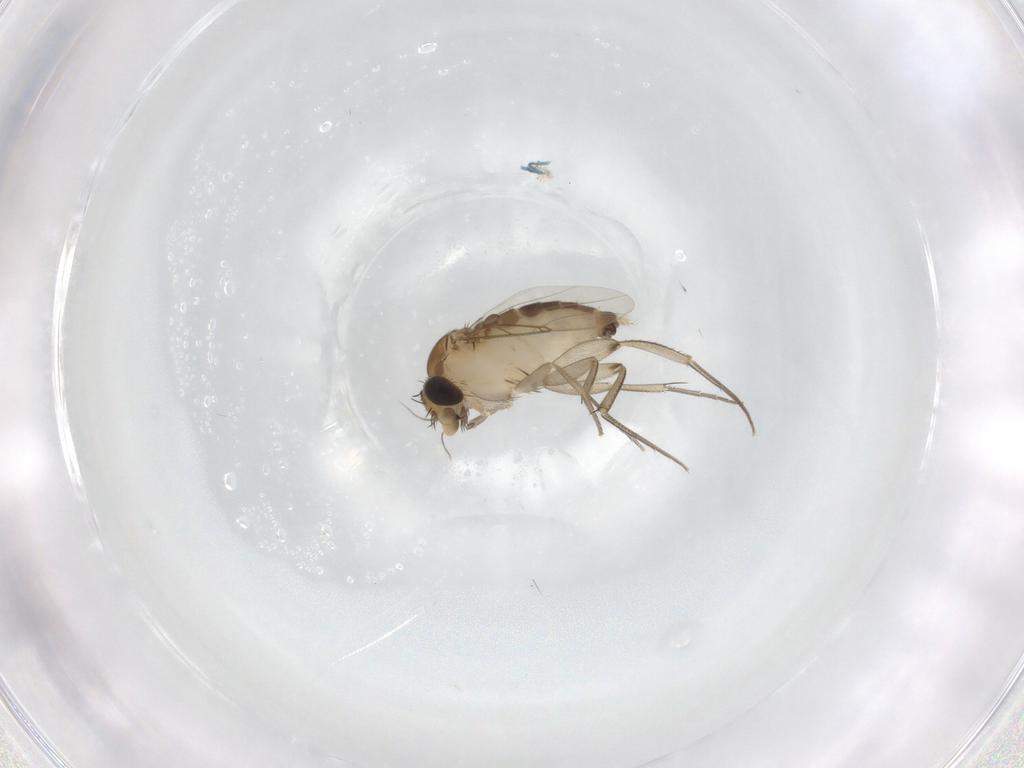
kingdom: Animalia
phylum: Arthropoda
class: Insecta
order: Diptera
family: Phoridae
